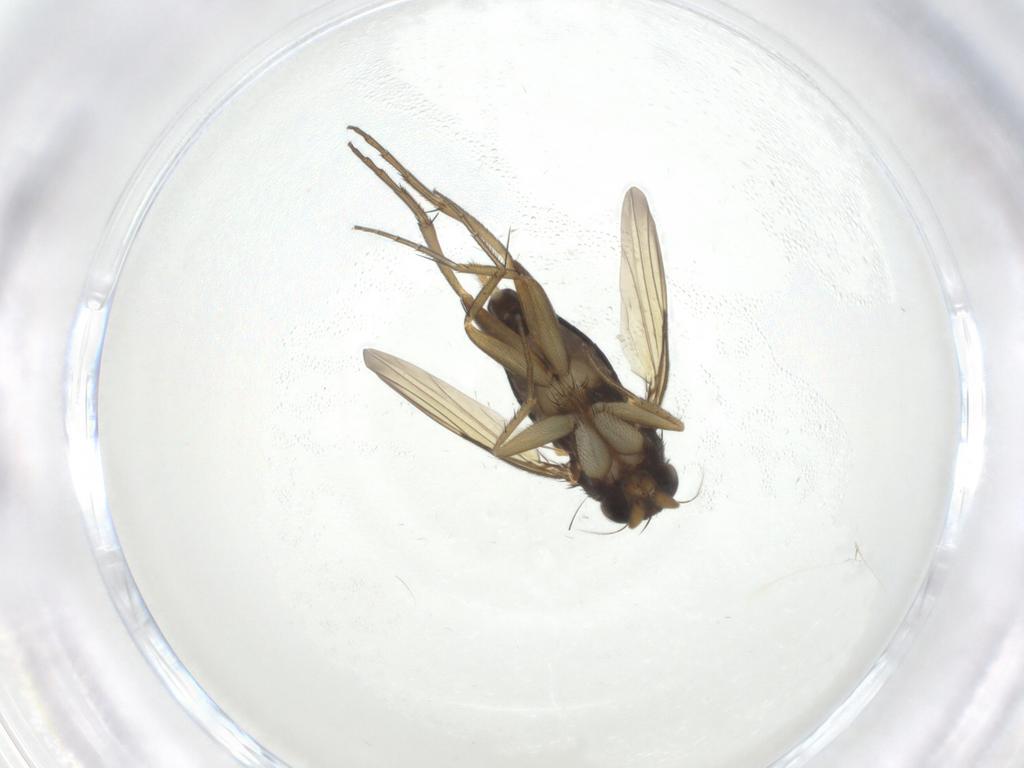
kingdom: Animalia
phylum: Arthropoda
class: Insecta
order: Diptera
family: Phoridae
